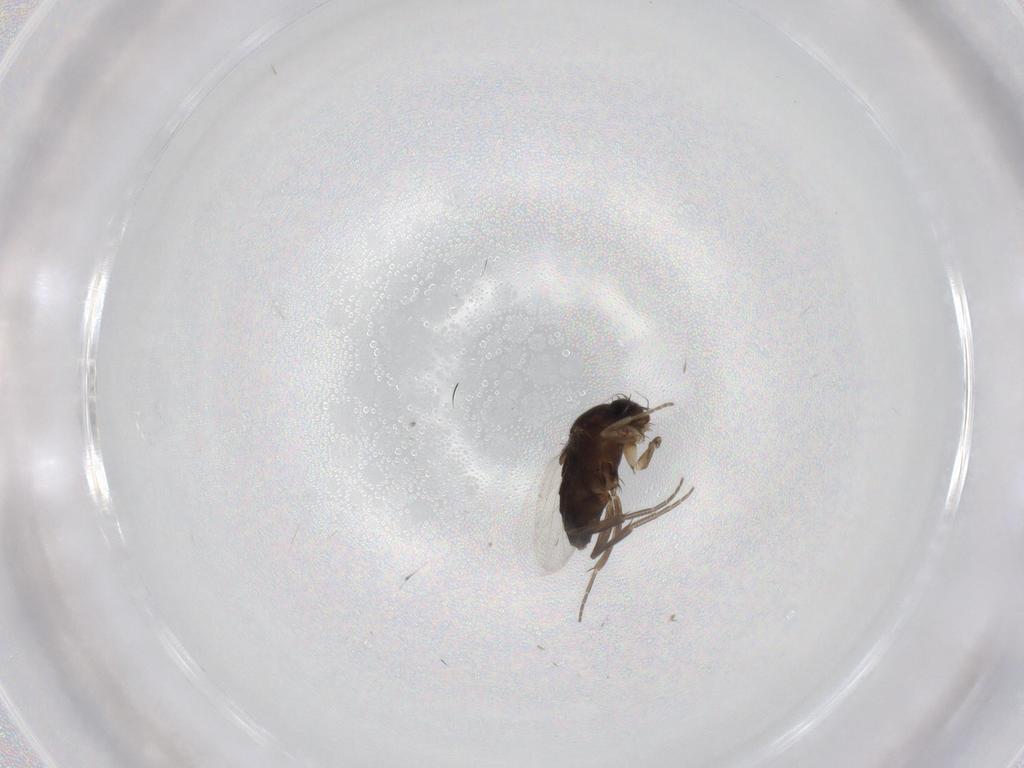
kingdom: Animalia
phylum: Arthropoda
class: Insecta
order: Diptera
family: Phoridae
